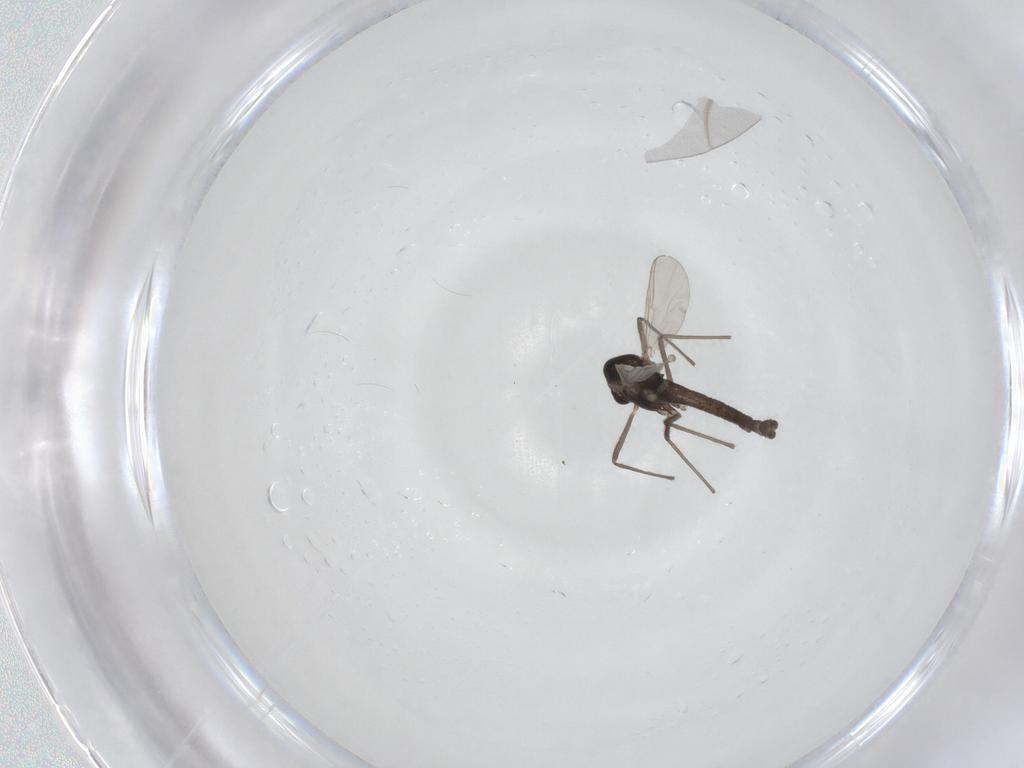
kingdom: Animalia
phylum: Arthropoda
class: Insecta
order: Diptera
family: Chironomidae
